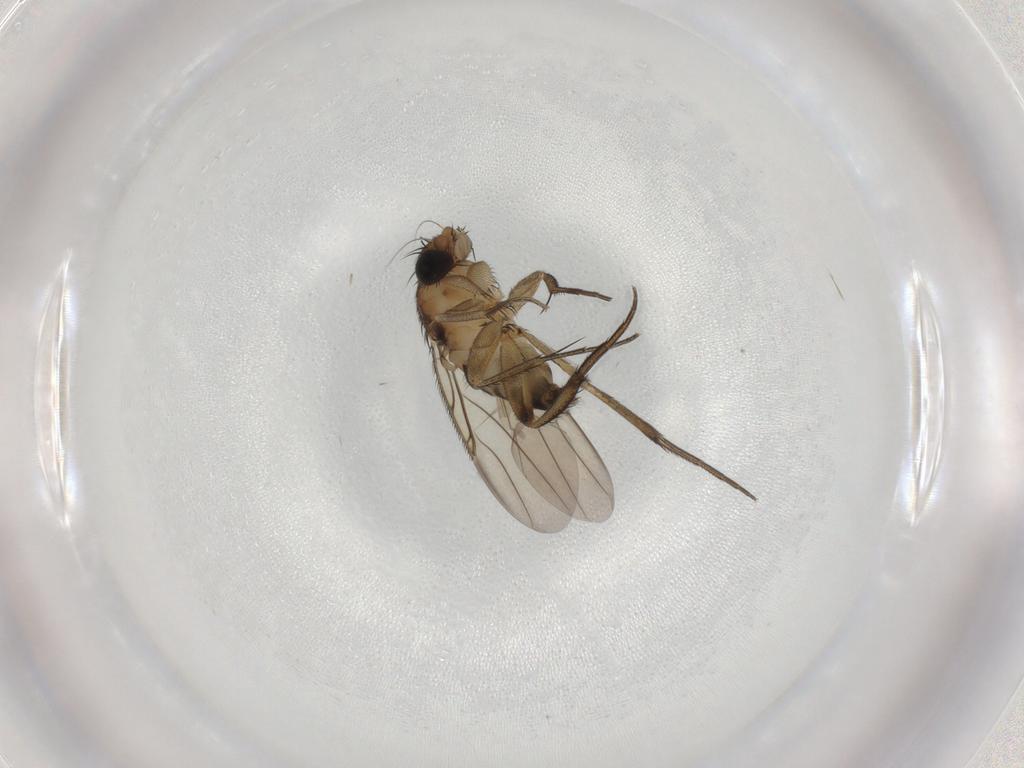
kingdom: Animalia
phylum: Arthropoda
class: Insecta
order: Diptera
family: Phoridae
